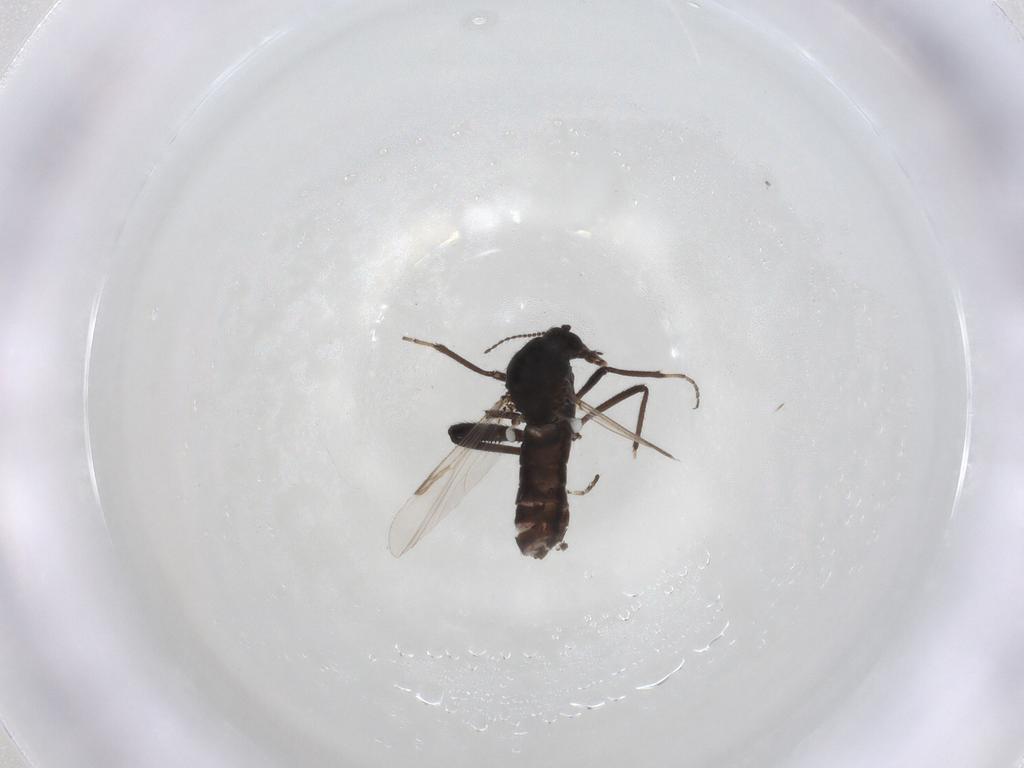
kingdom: Animalia
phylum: Arthropoda
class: Insecta
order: Diptera
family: Ceratopogonidae
